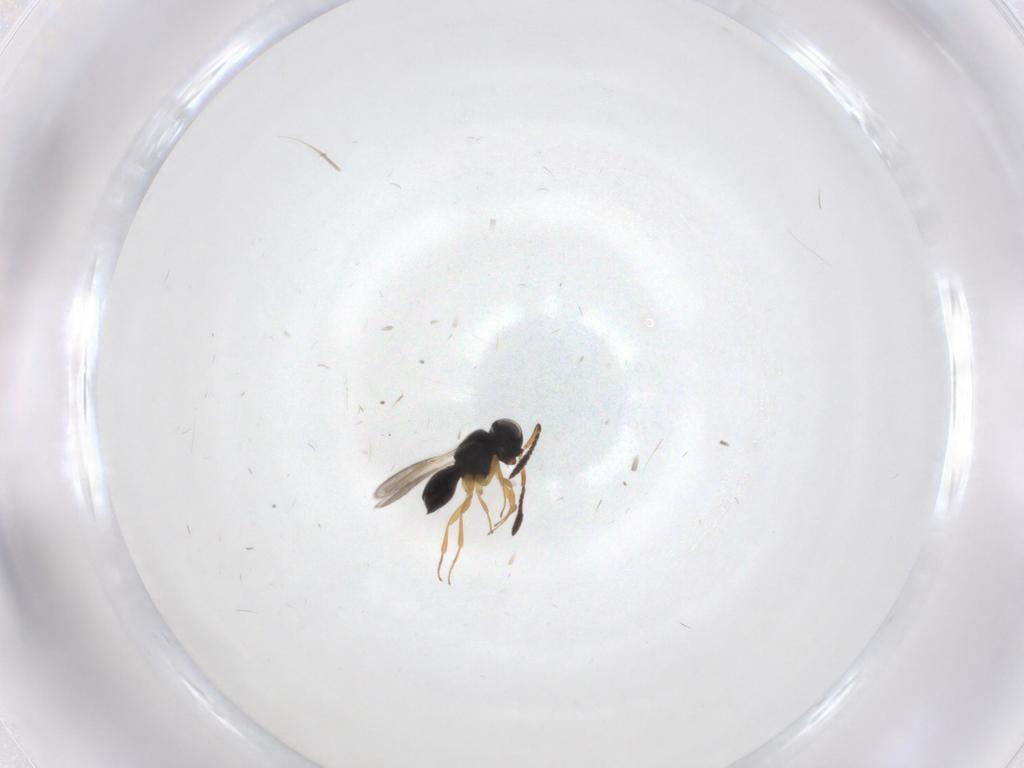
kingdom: Animalia
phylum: Arthropoda
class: Insecta
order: Hymenoptera
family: Scelionidae
